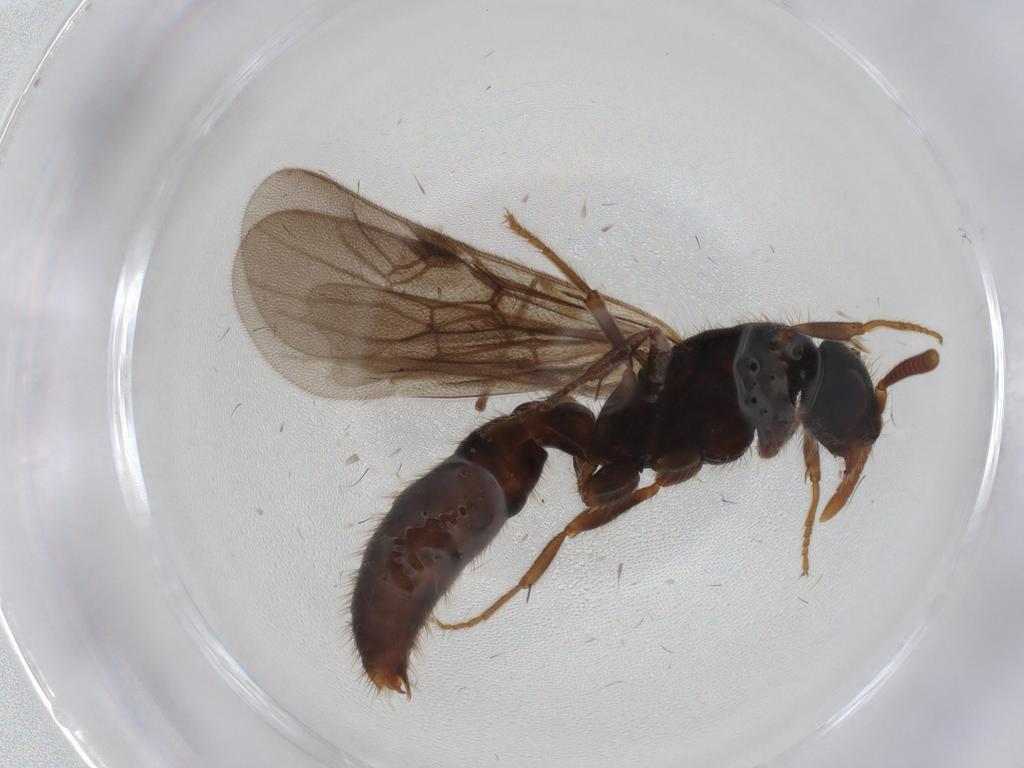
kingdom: Animalia
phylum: Arthropoda
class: Insecta
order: Hymenoptera
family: Formicidae
